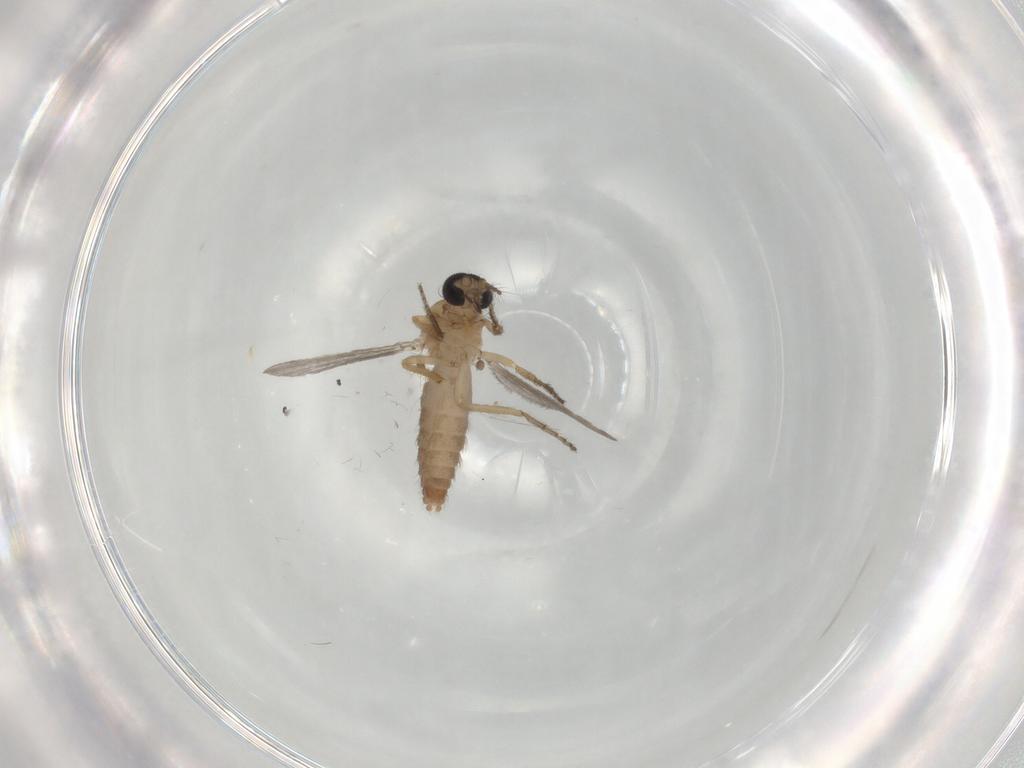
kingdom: Animalia
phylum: Arthropoda
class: Insecta
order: Diptera
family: Ceratopogonidae
